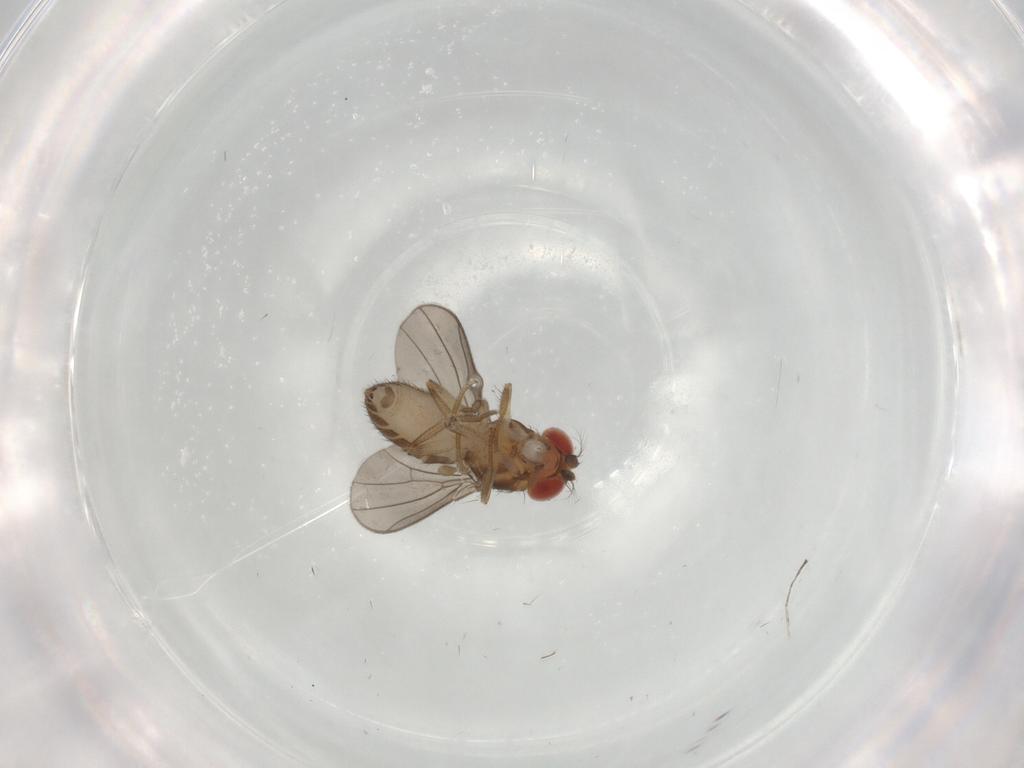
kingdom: Animalia
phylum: Arthropoda
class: Insecta
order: Diptera
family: Drosophilidae
